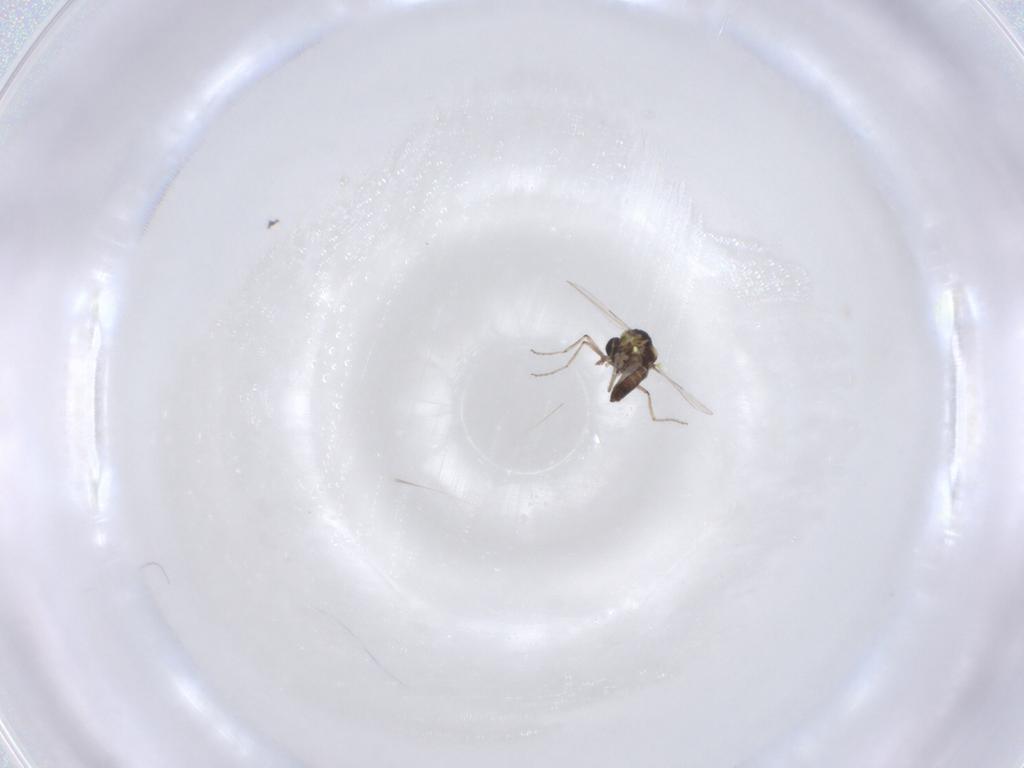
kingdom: Animalia
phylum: Arthropoda
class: Insecta
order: Diptera
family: Ceratopogonidae
